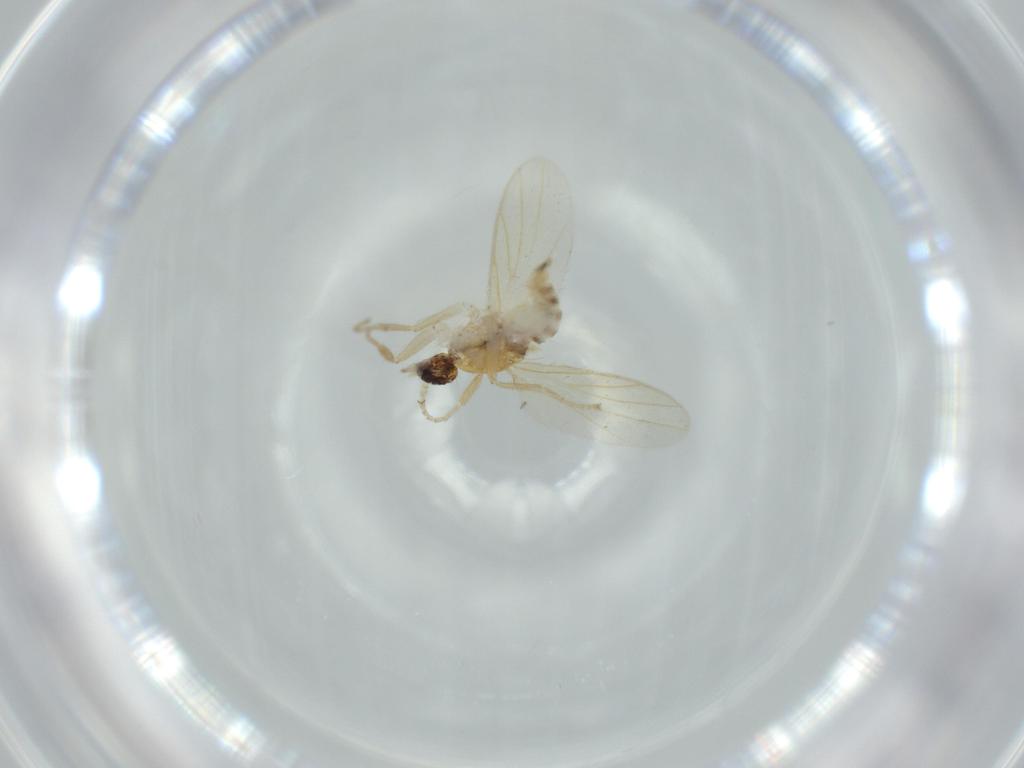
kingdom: Animalia
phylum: Arthropoda
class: Insecta
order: Diptera
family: Hybotidae
